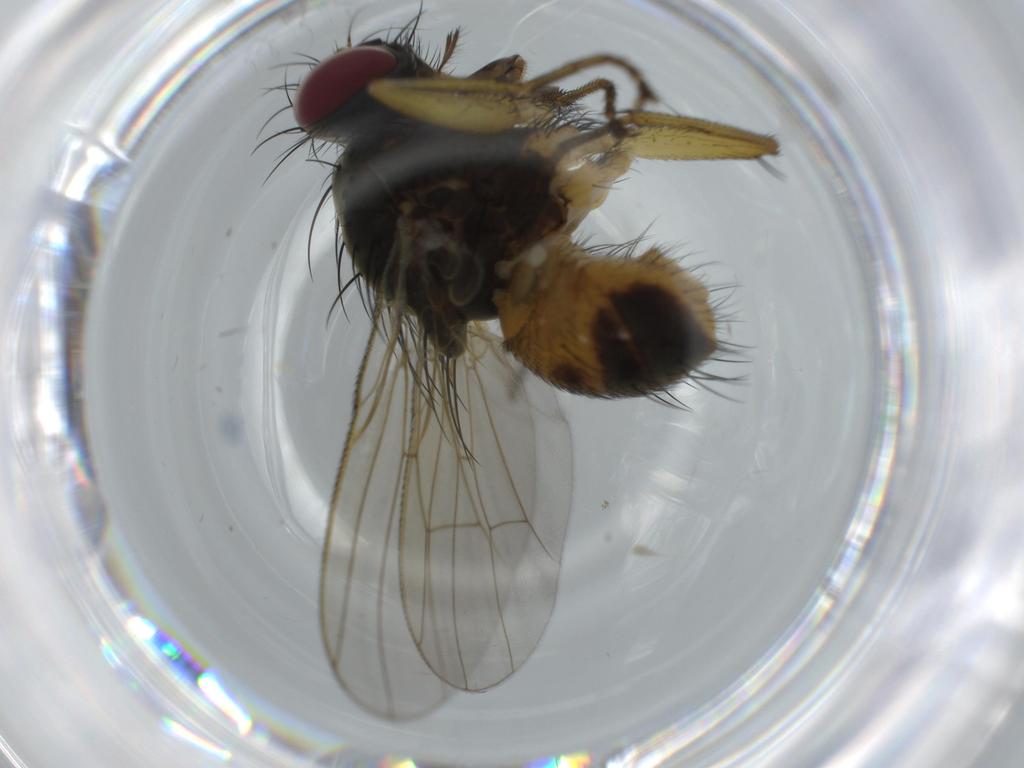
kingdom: Animalia
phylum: Arthropoda
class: Insecta
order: Diptera
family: Muscidae
